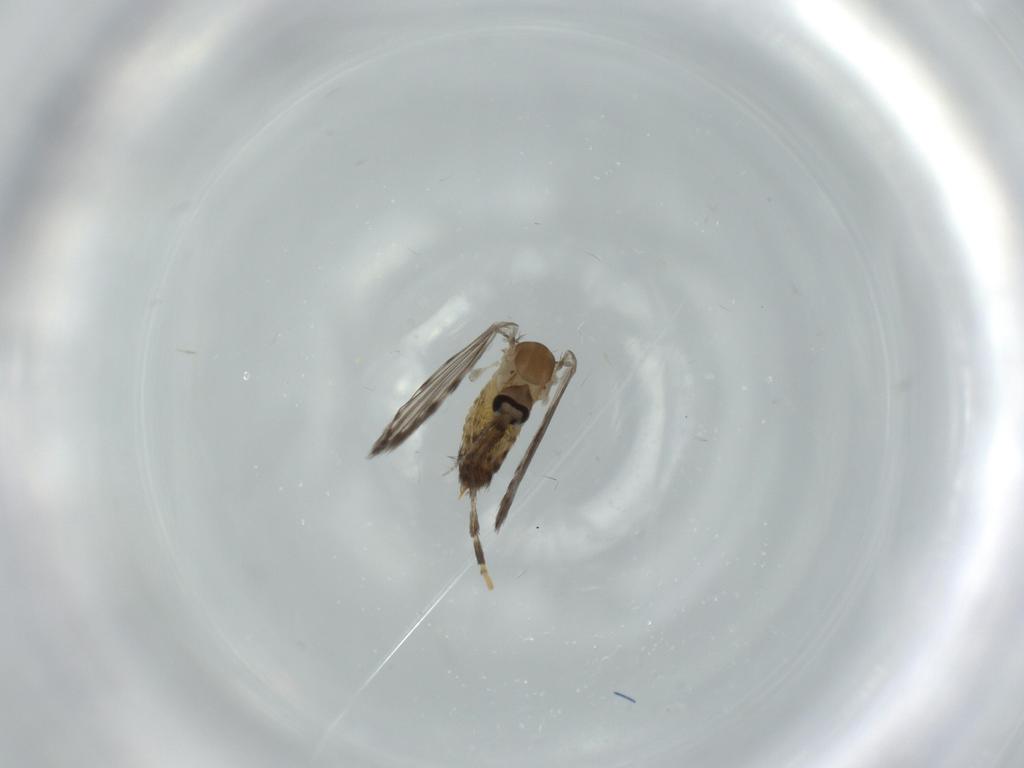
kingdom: Animalia
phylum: Arthropoda
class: Insecta
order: Diptera
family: Psychodidae
